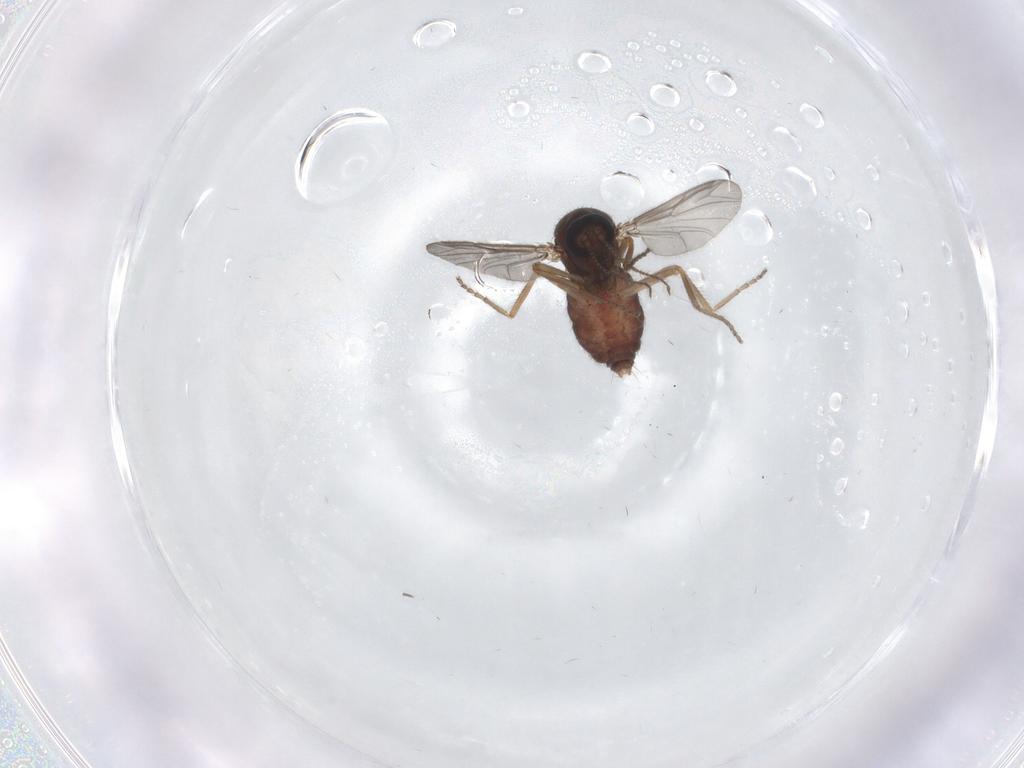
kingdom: Animalia
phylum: Arthropoda
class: Insecta
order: Diptera
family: Ceratopogonidae
